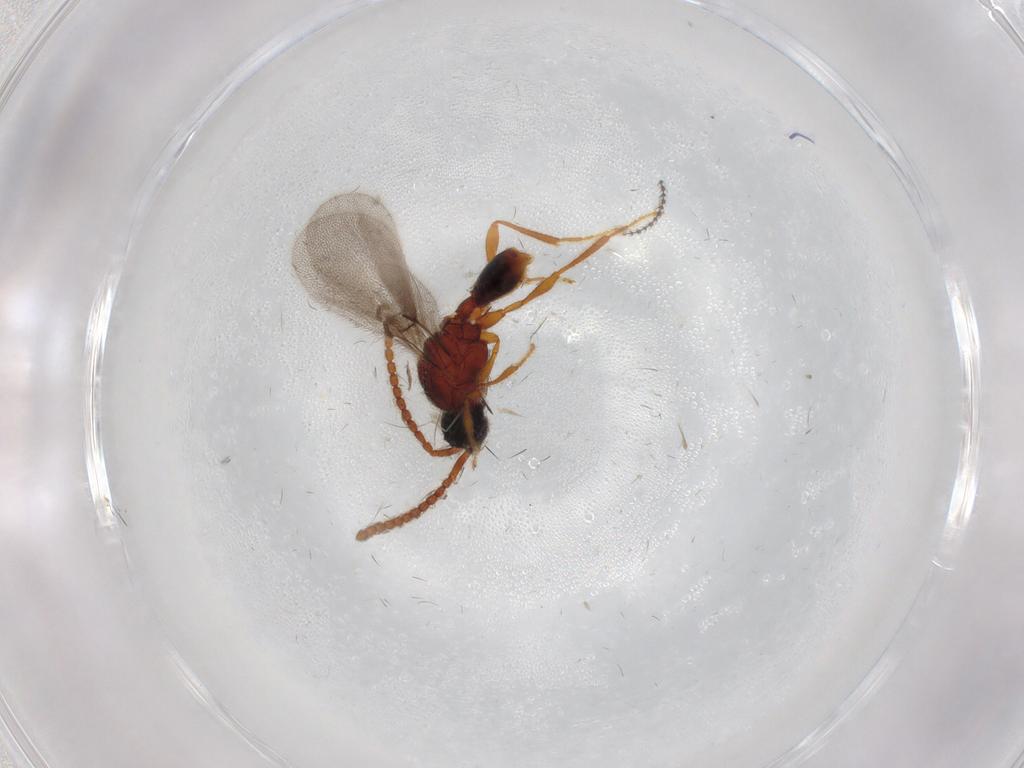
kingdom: Animalia
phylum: Arthropoda
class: Insecta
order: Hymenoptera
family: Diapriidae
